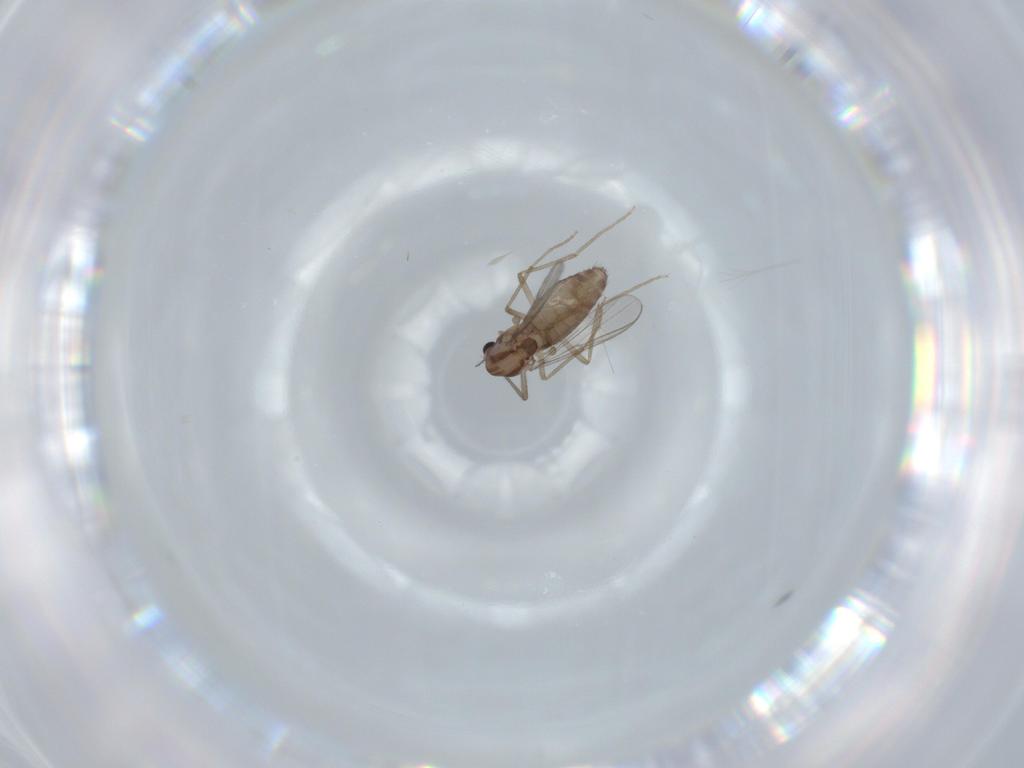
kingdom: Animalia
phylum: Arthropoda
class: Insecta
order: Diptera
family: Chironomidae
